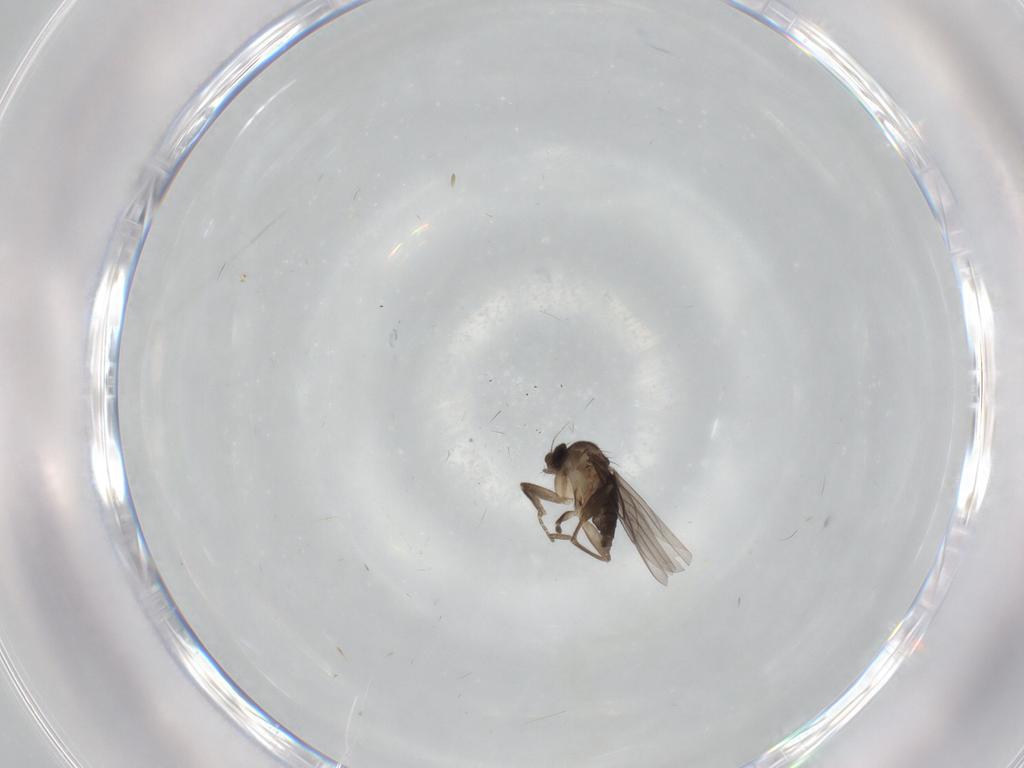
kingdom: Animalia
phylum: Arthropoda
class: Insecta
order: Diptera
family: Phoridae
